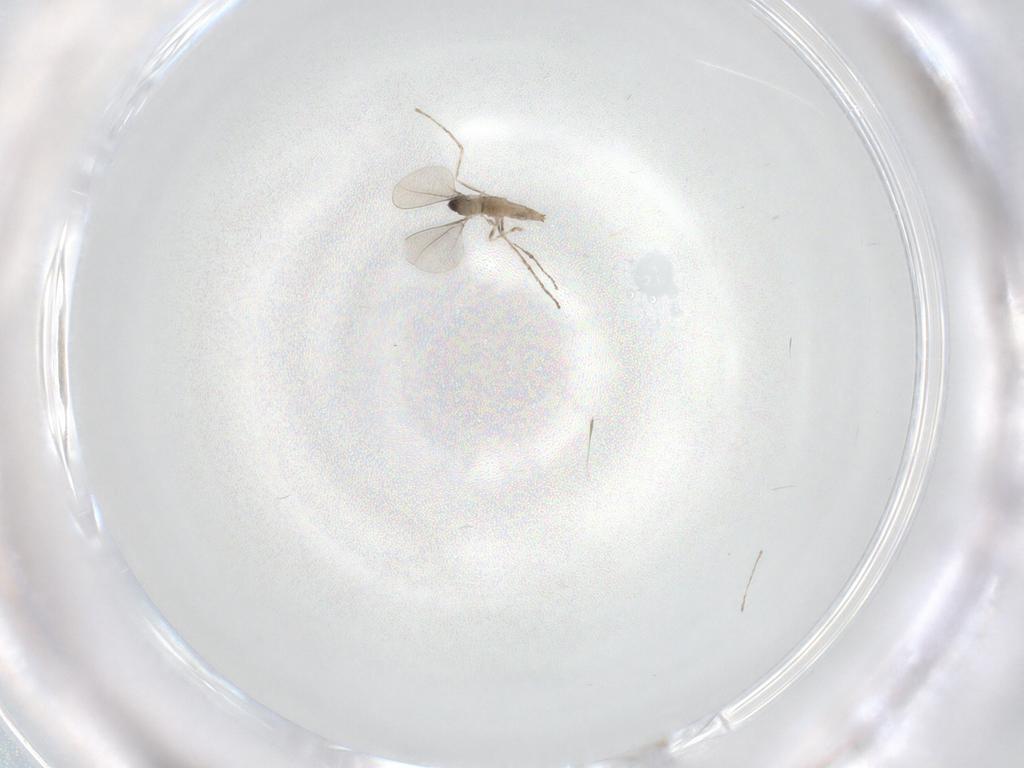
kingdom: Animalia
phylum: Arthropoda
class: Insecta
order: Diptera
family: Cecidomyiidae
